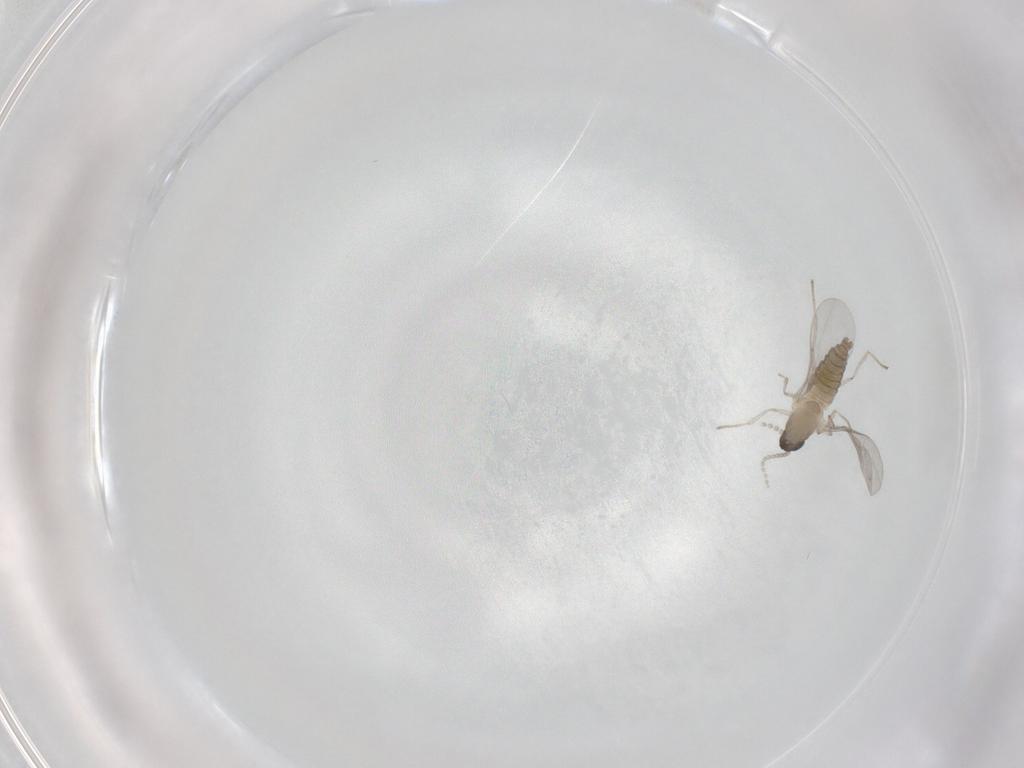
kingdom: Animalia
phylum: Arthropoda
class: Insecta
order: Diptera
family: Cecidomyiidae
